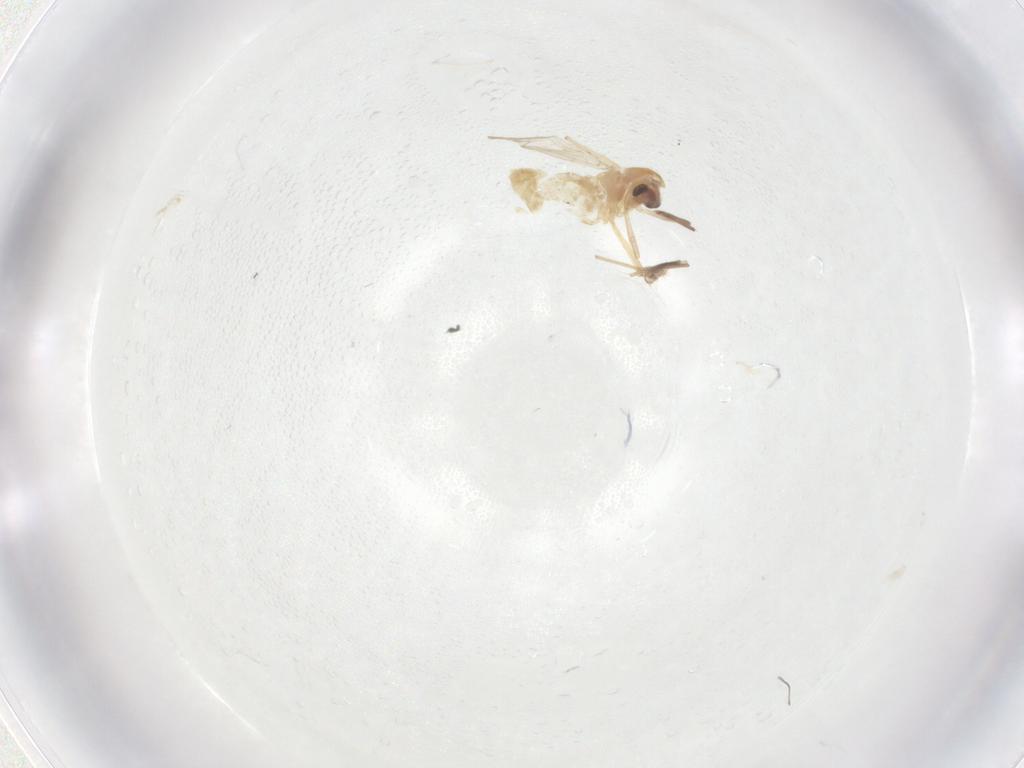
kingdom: Animalia
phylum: Arthropoda
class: Insecta
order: Diptera
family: Chironomidae
